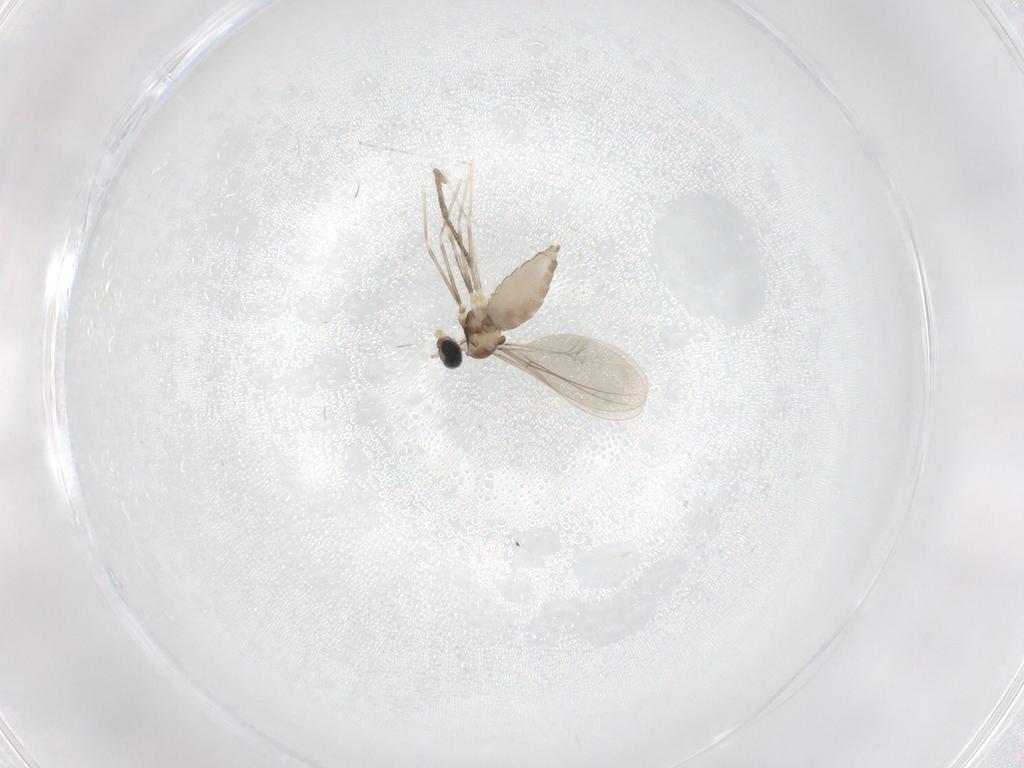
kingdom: Animalia
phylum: Arthropoda
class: Insecta
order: Diptera
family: Cecidomyiidae
